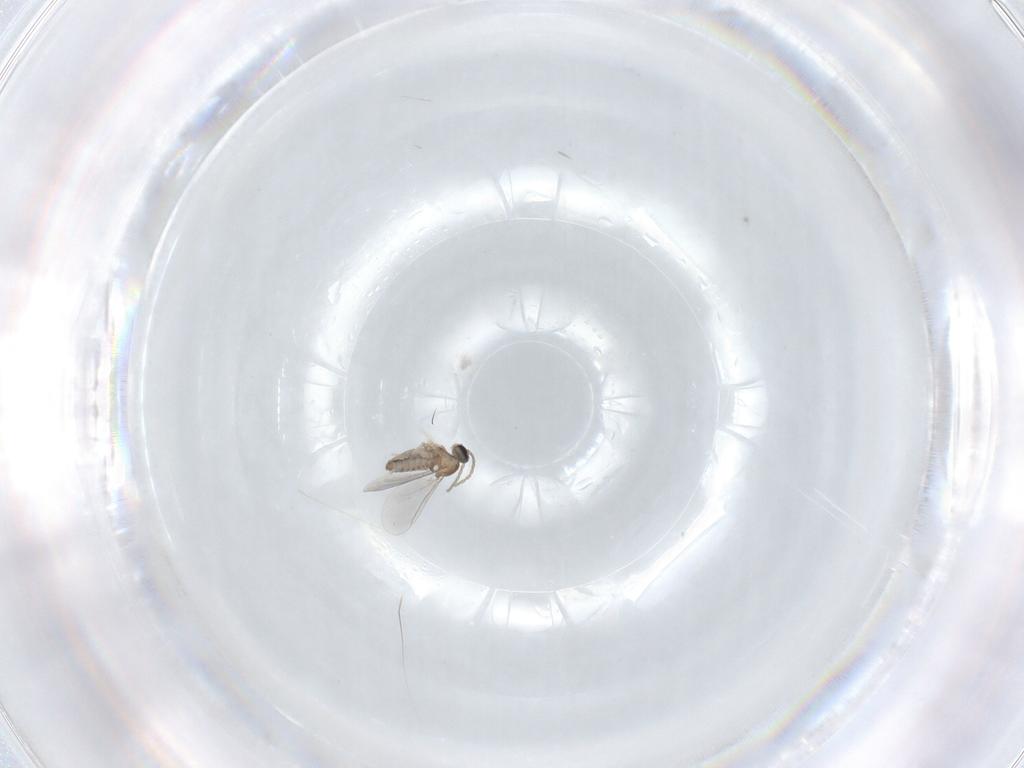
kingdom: Animalia
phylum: Arthropoda
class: Insecta
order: Diptera
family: Cecidomyiidae
